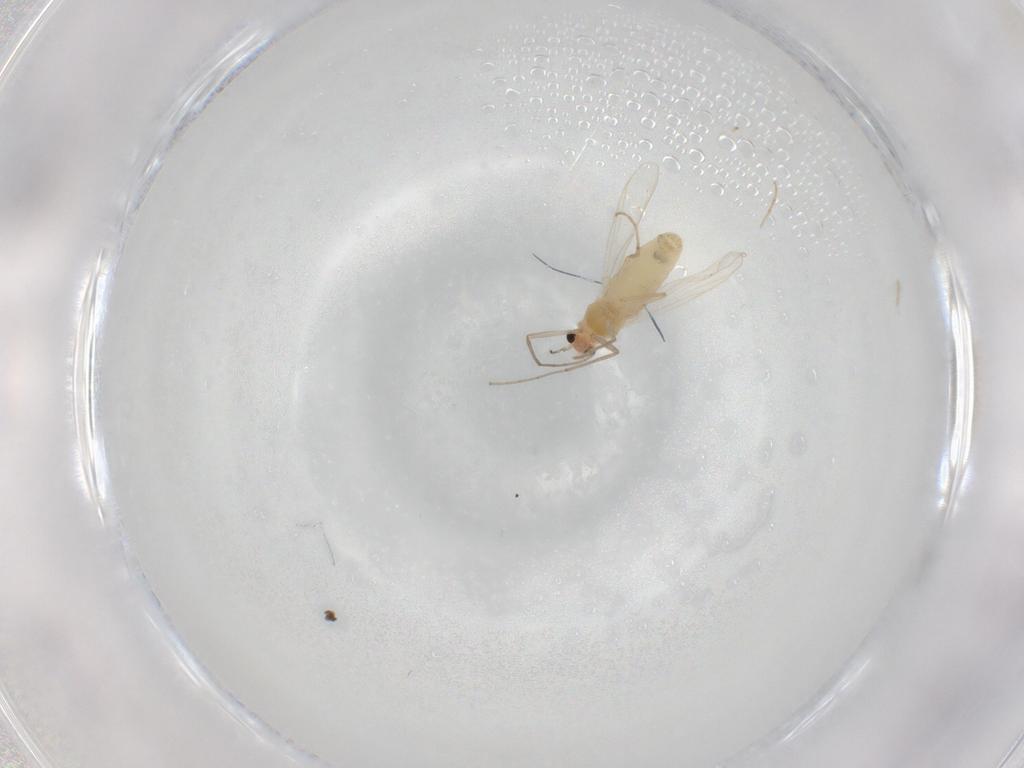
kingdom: Animalia
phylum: Arthropoda
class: Insecta
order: Diptera
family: Chironomidae
